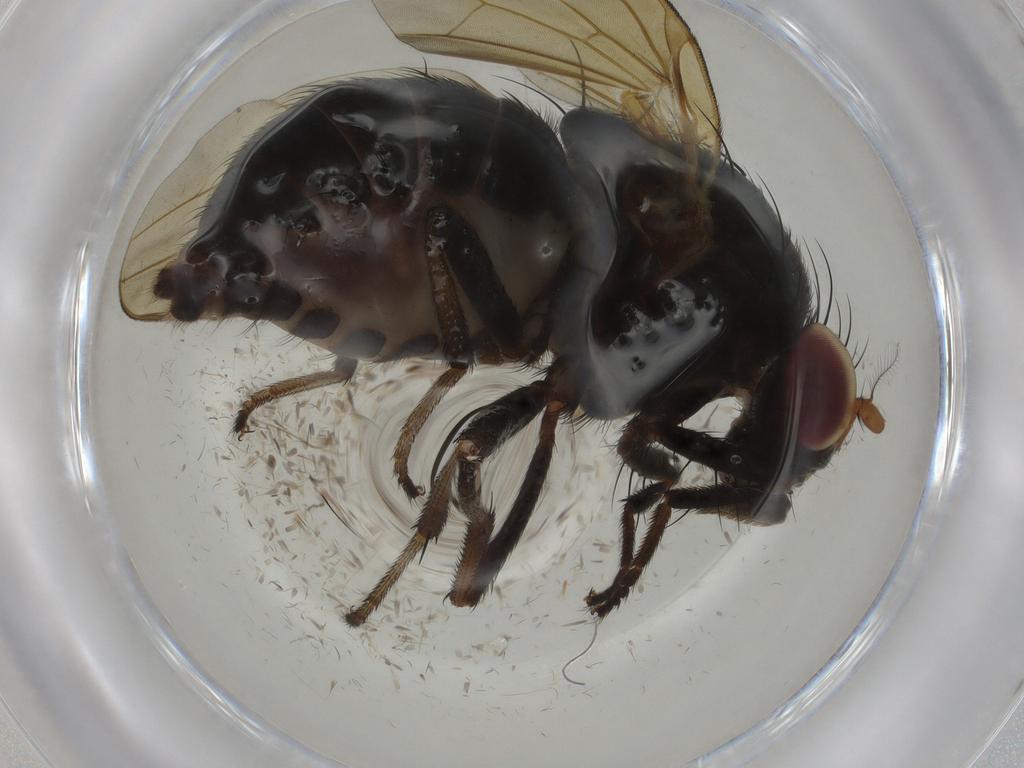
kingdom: Animalia
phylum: Arthropoda
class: Insecta
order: Diptera
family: Chironomidae
